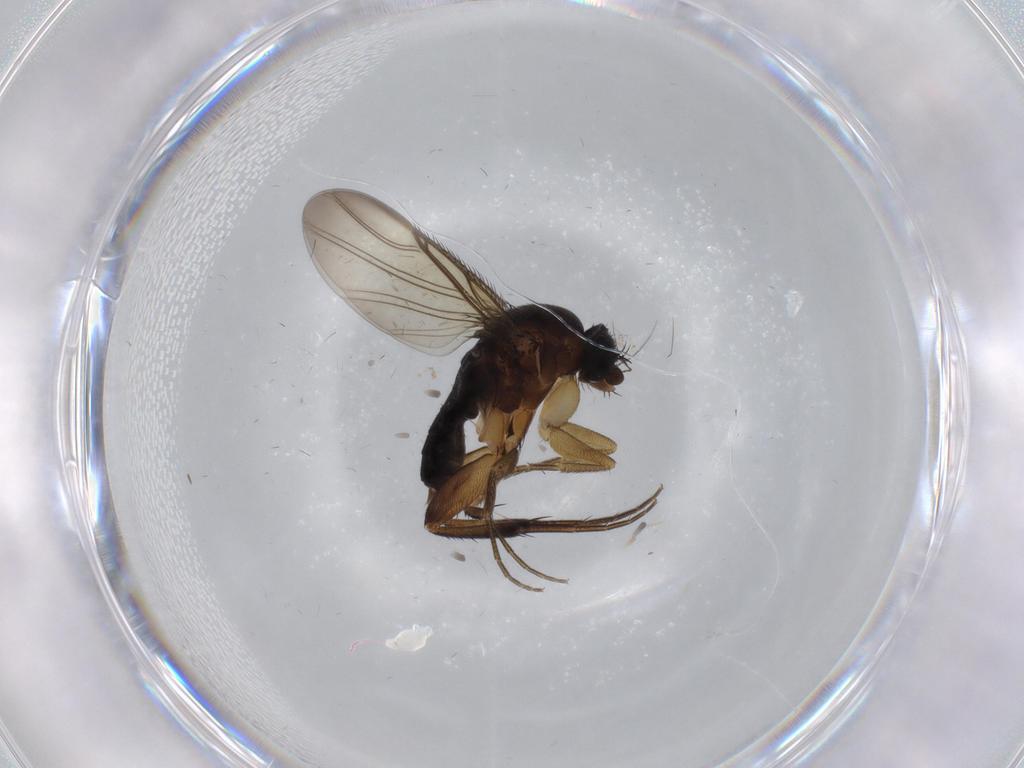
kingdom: Animalia
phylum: Arthropoda
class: Insecta
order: Diptera
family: Phoridae
